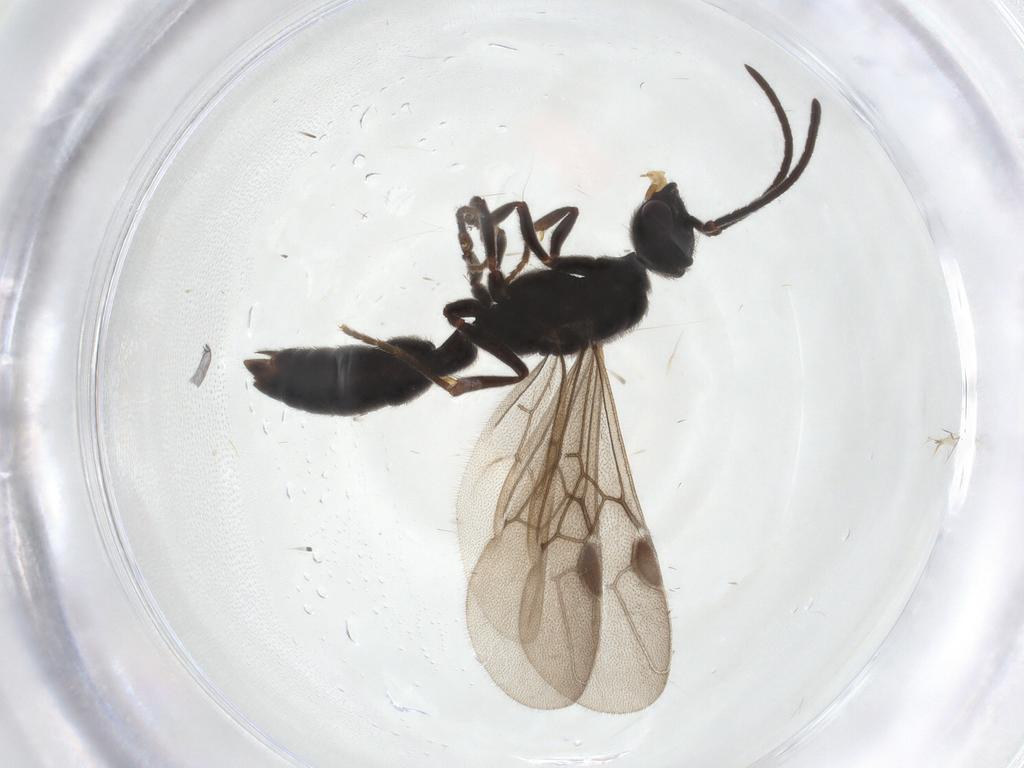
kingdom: Animalia
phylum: Arthropoda
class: Insecta
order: Hymenoptera
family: Formicidae
